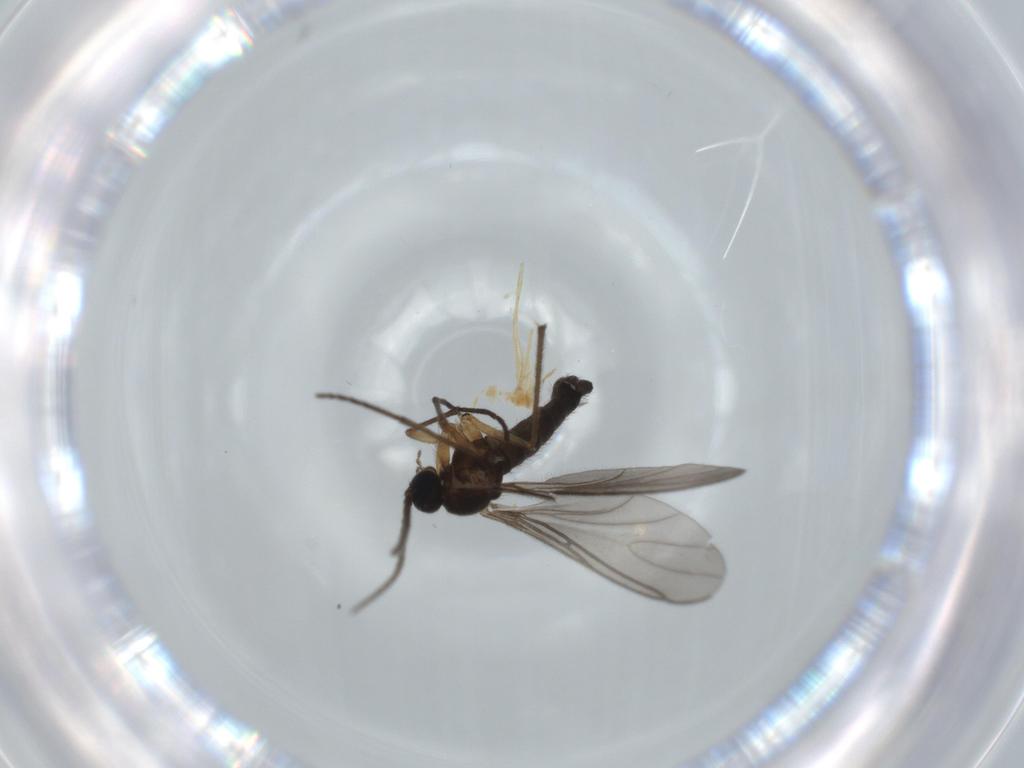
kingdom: Animalia
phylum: Arthropoda
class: Insecta
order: Diptera
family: Sciaridae
